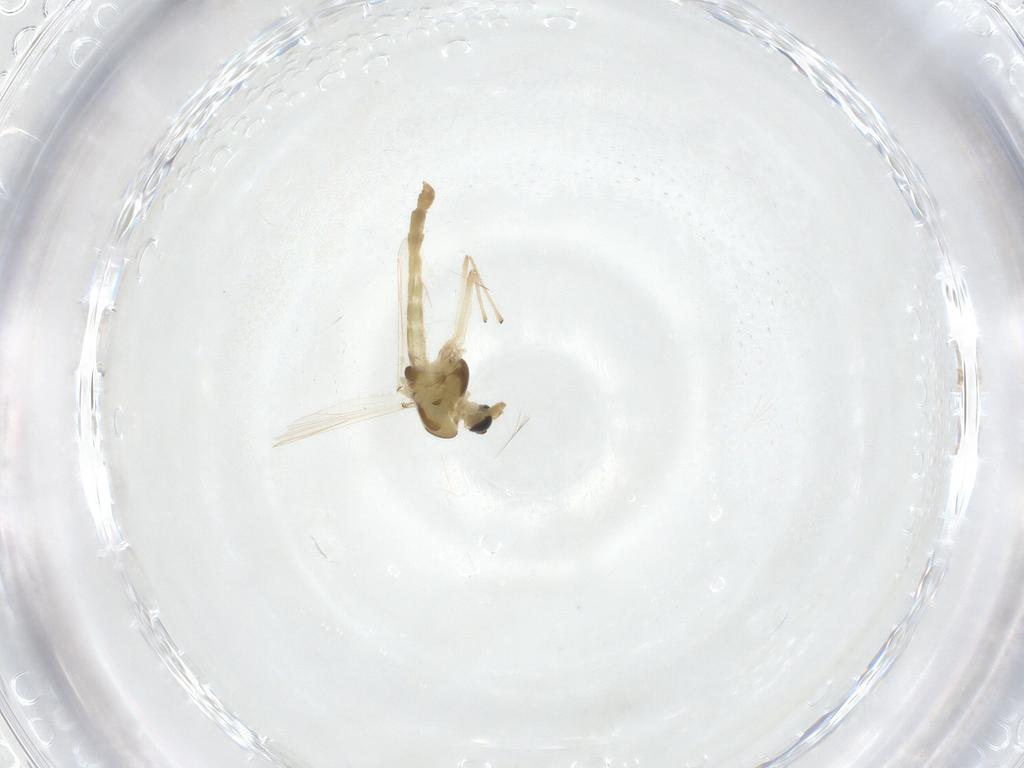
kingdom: Animalia
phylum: Arthropoda
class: Insecta
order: Diptera
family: Chironomidae
